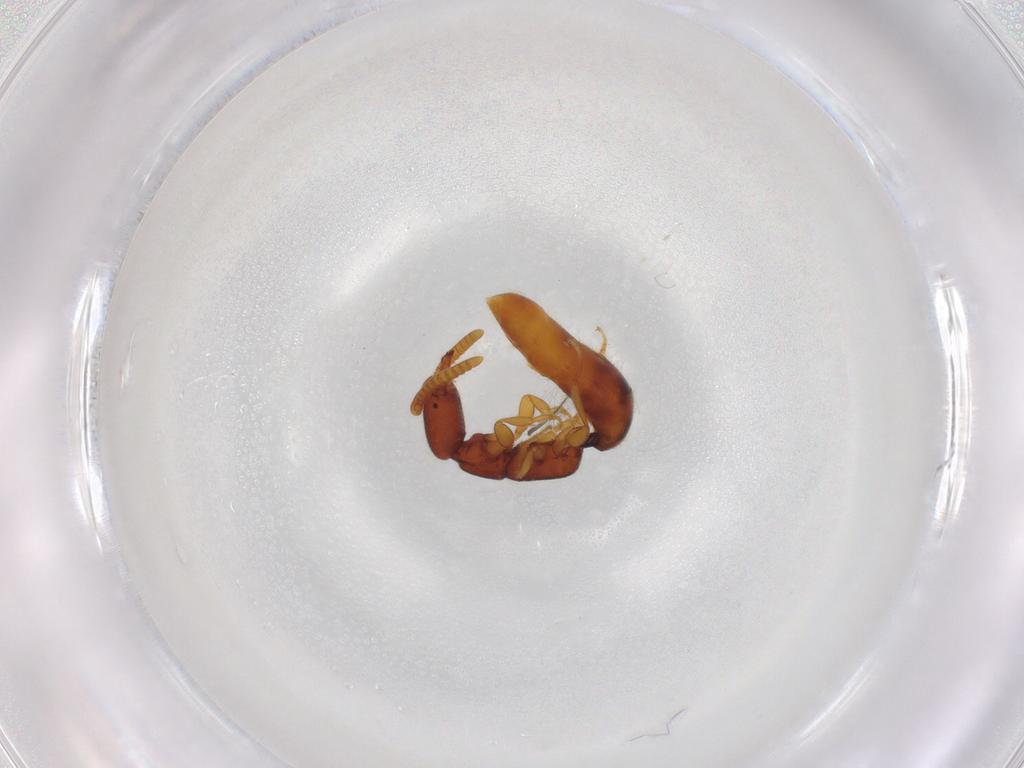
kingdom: Animalia
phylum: Arthropoda
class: Insecta
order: Hymenoptera
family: Bethylidae
